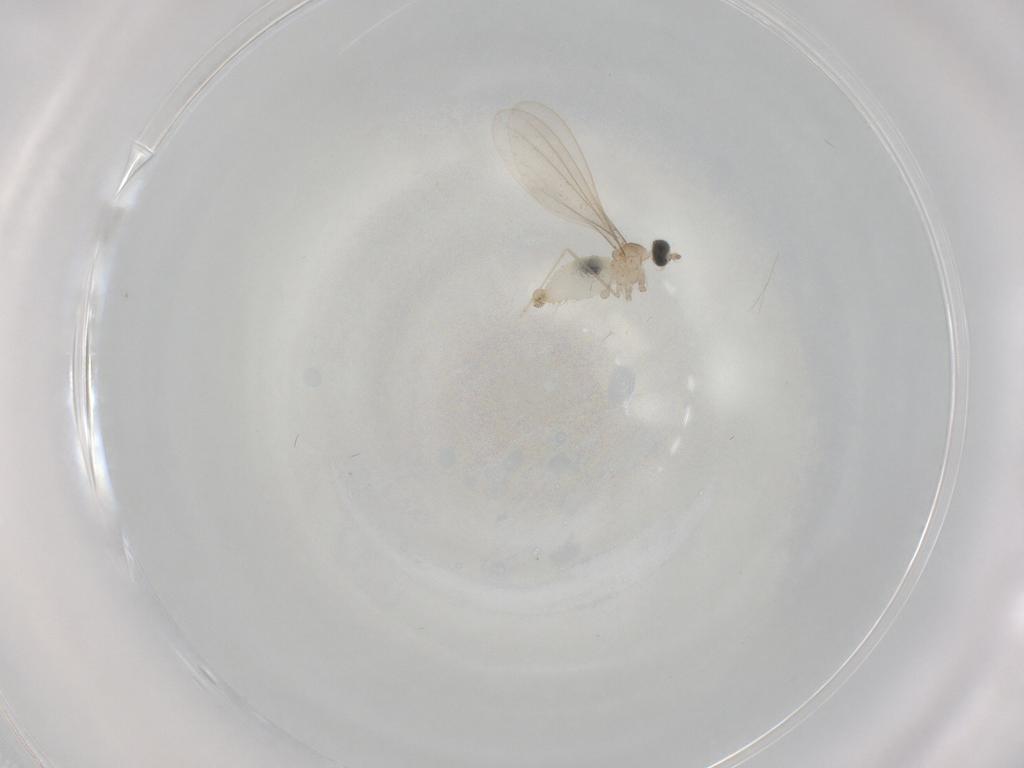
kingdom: Animalia
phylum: Arthropoda
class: Insecta
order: Diptera
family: Cecidomyiidae
